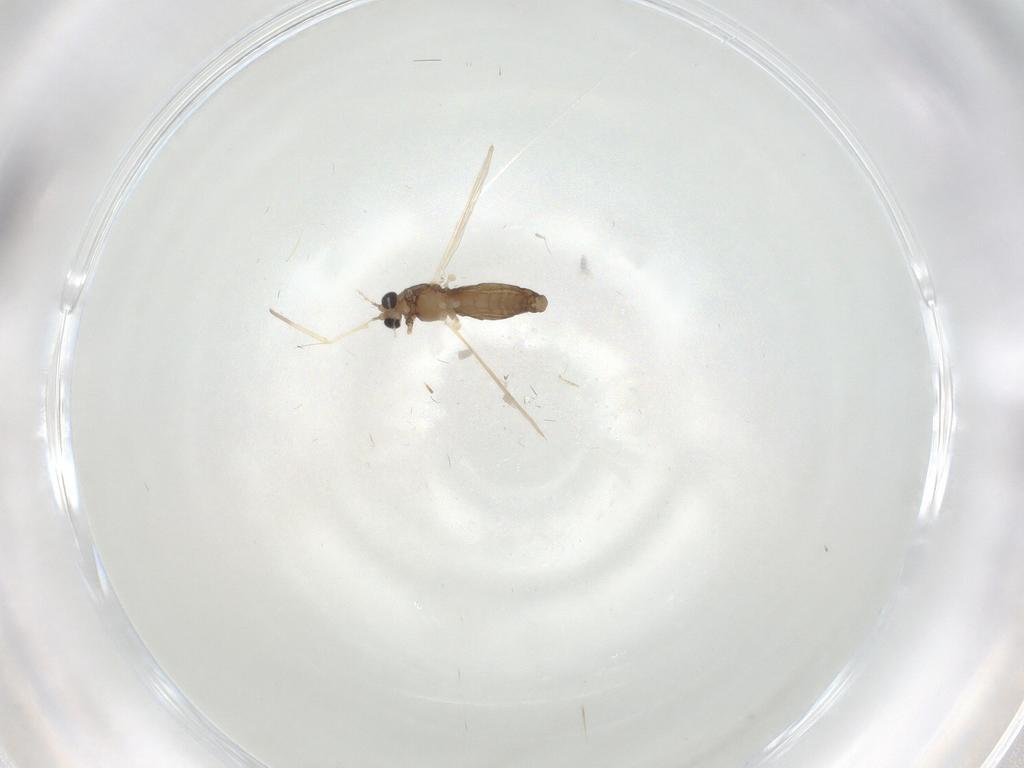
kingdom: Animalia
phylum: Arthropoda
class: Insecta
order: Diptera
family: Chironomidae
